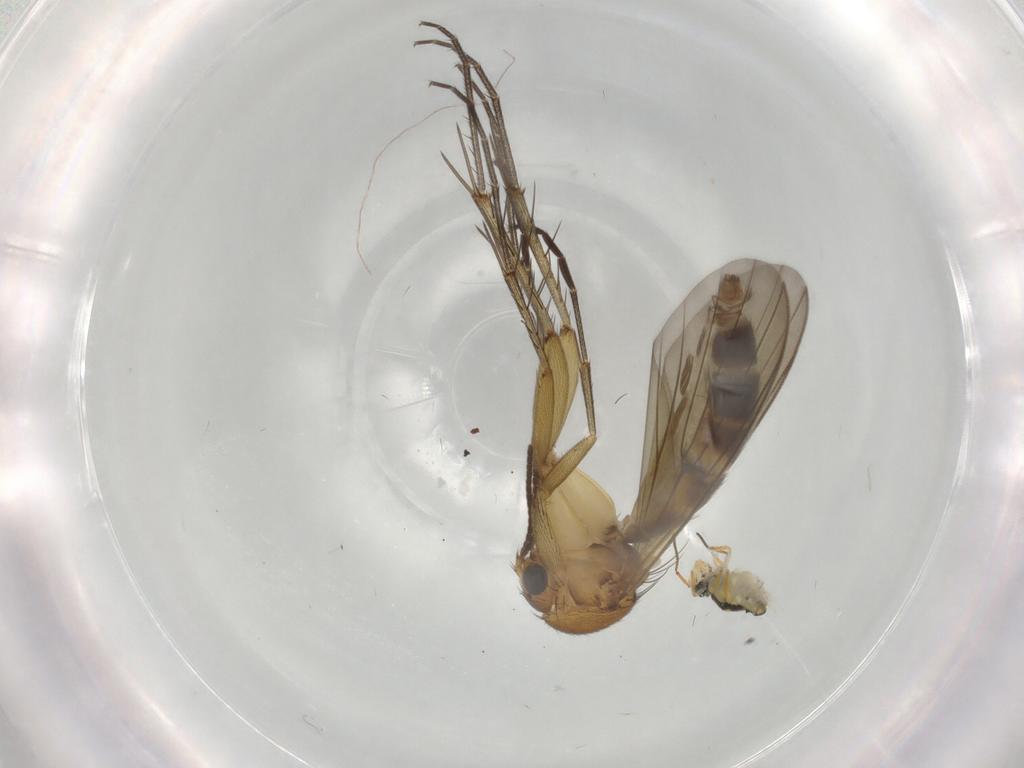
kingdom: Animalia
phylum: Arthropoda
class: Insecta
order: Diptera
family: Mycetophilidae
